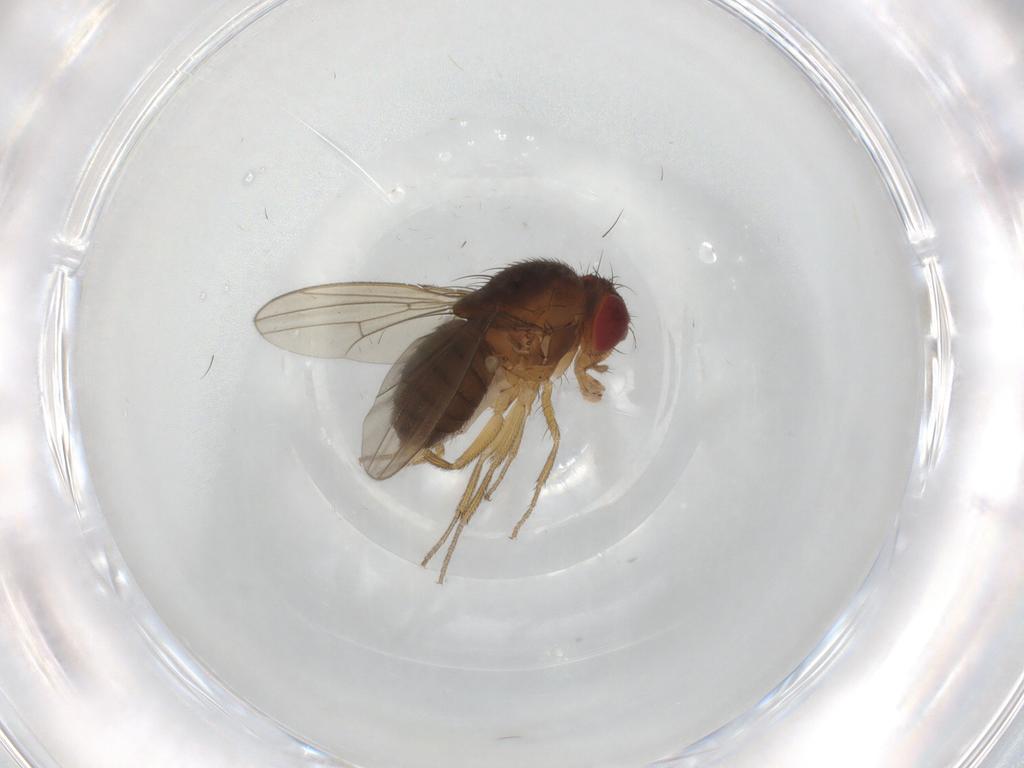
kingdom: Animalia
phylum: Arthropoda
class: Insecta
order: Diptera
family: Drosophilidae
